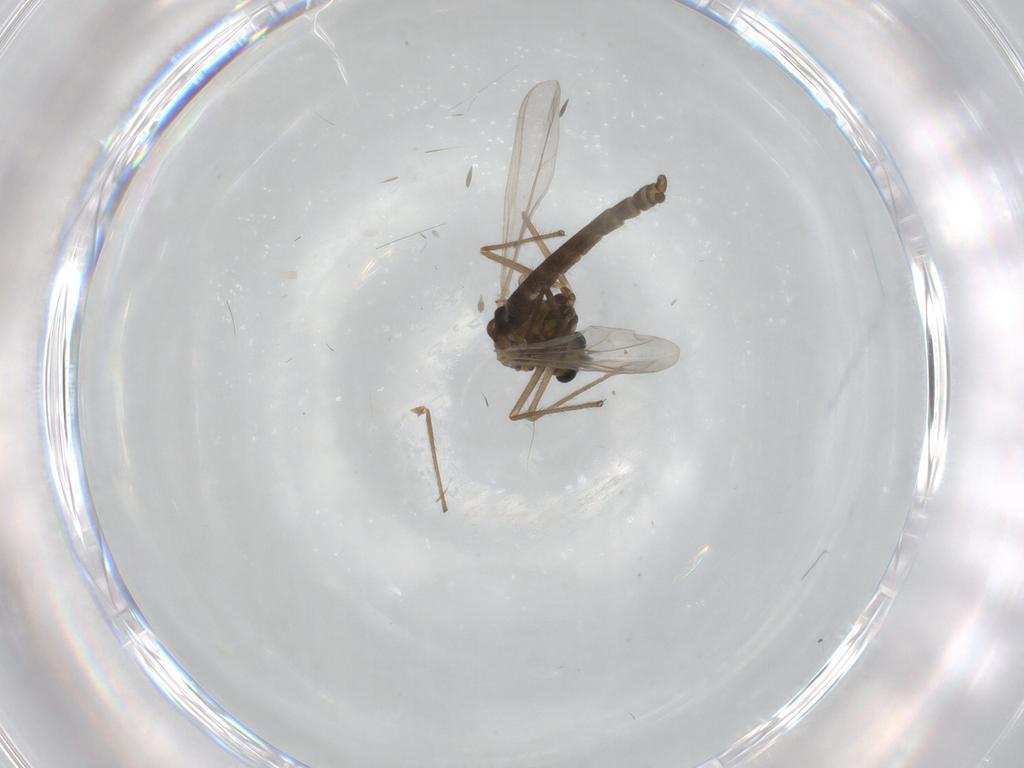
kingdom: Animalia
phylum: Arthropoda
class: Insecta
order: Diptera
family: Chironomidae
